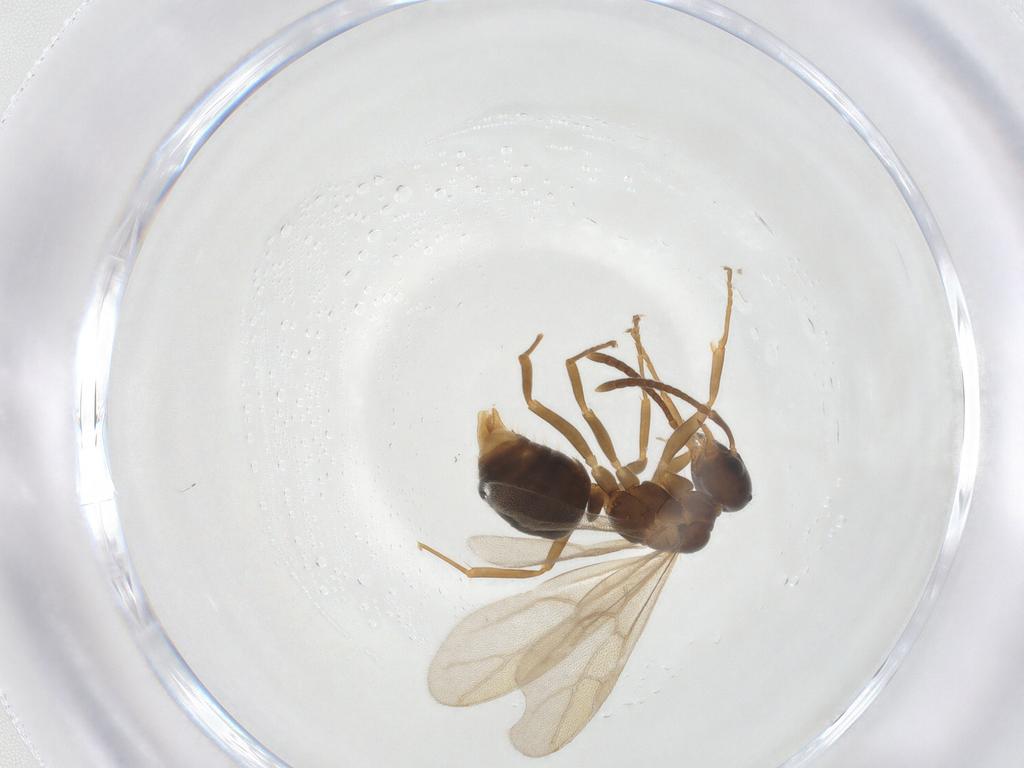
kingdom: Animalia
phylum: Arthropoda
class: Insecta
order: Hymenoptera
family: Formicidae
